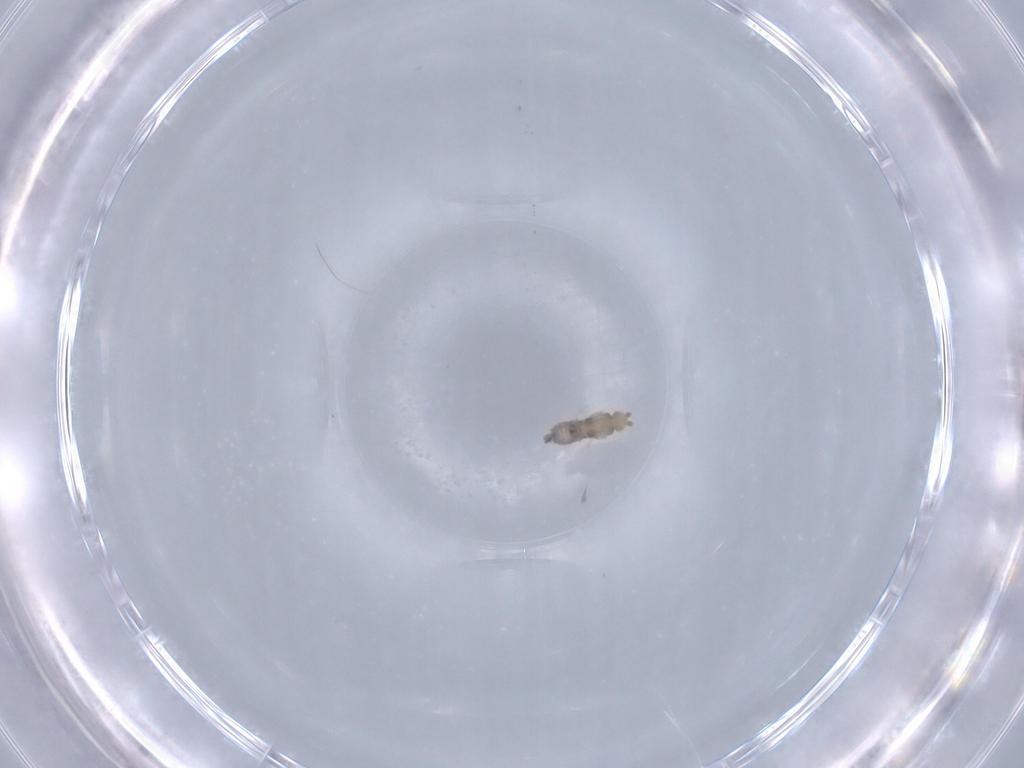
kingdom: Animalia
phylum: Arthropoda
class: Insecta
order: Diptera
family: Cecidomyiidae
